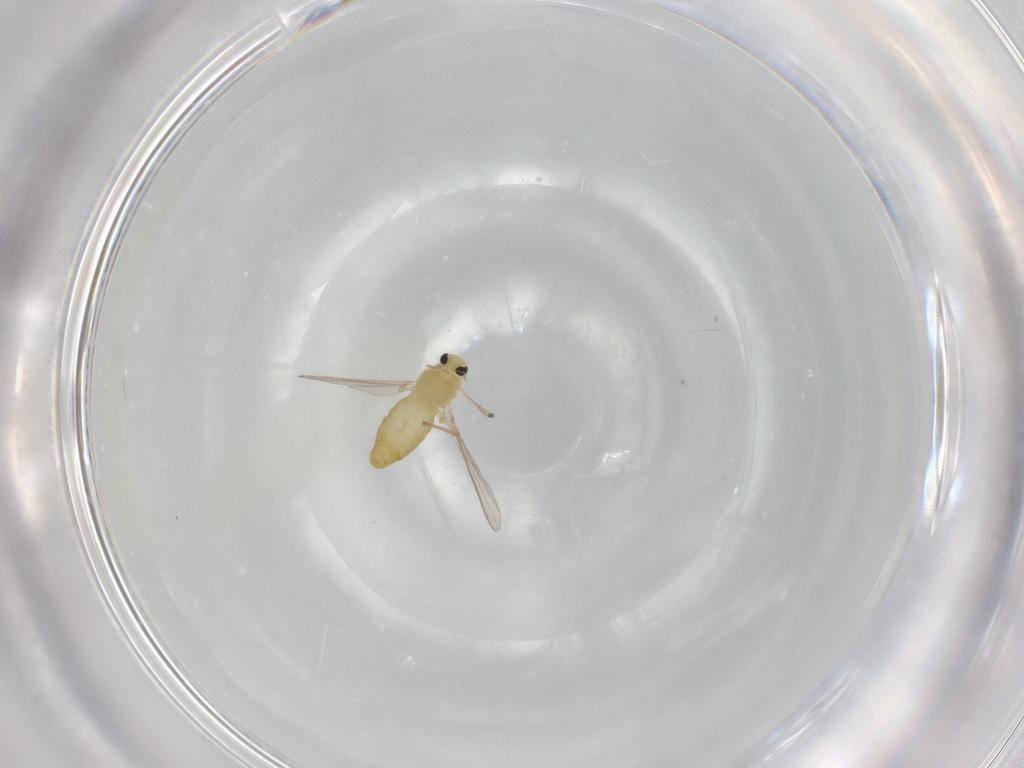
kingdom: Animalia
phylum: Arthropoda
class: Insecta
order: Diptera
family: Chironomidae
